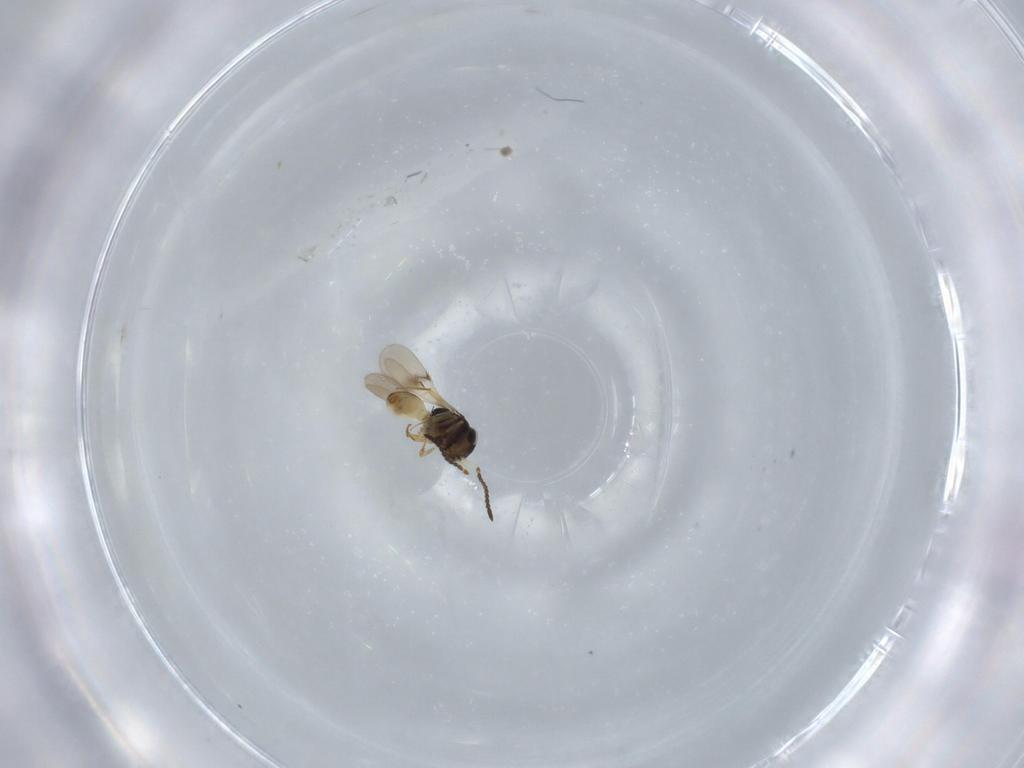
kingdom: Animalia
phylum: Arthropoda
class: Insecta
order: Hymenoptera
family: Scelionidae
